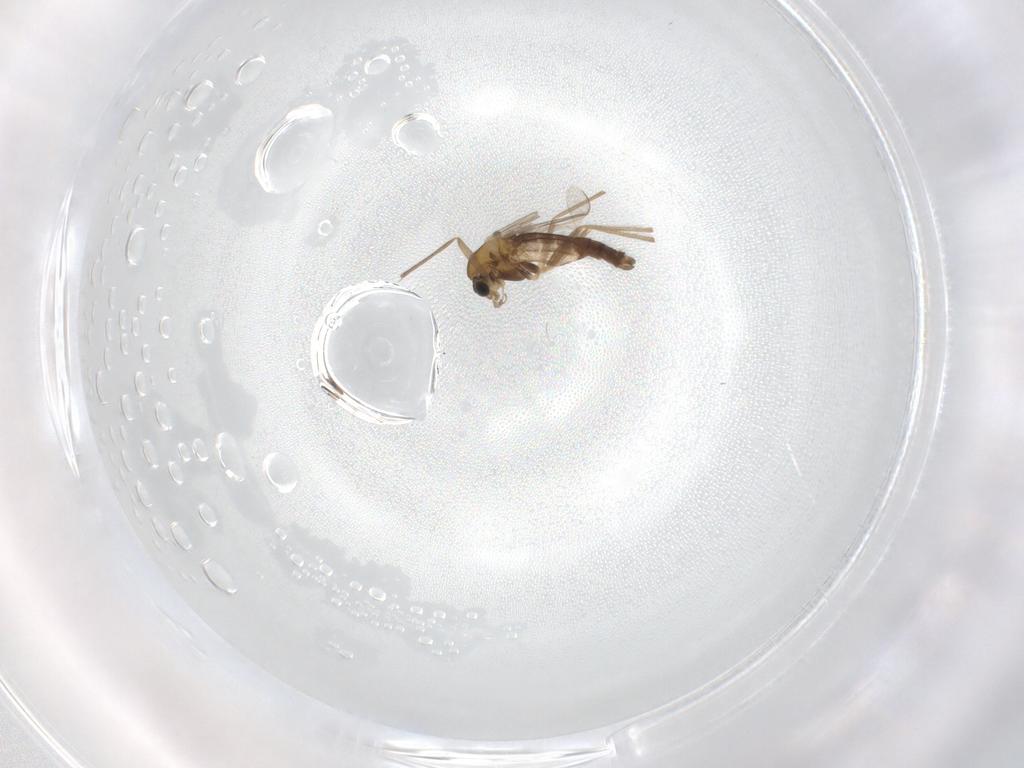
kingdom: Animalia
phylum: Arthropoda
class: Insecta
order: Diptera
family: Chironomidae
